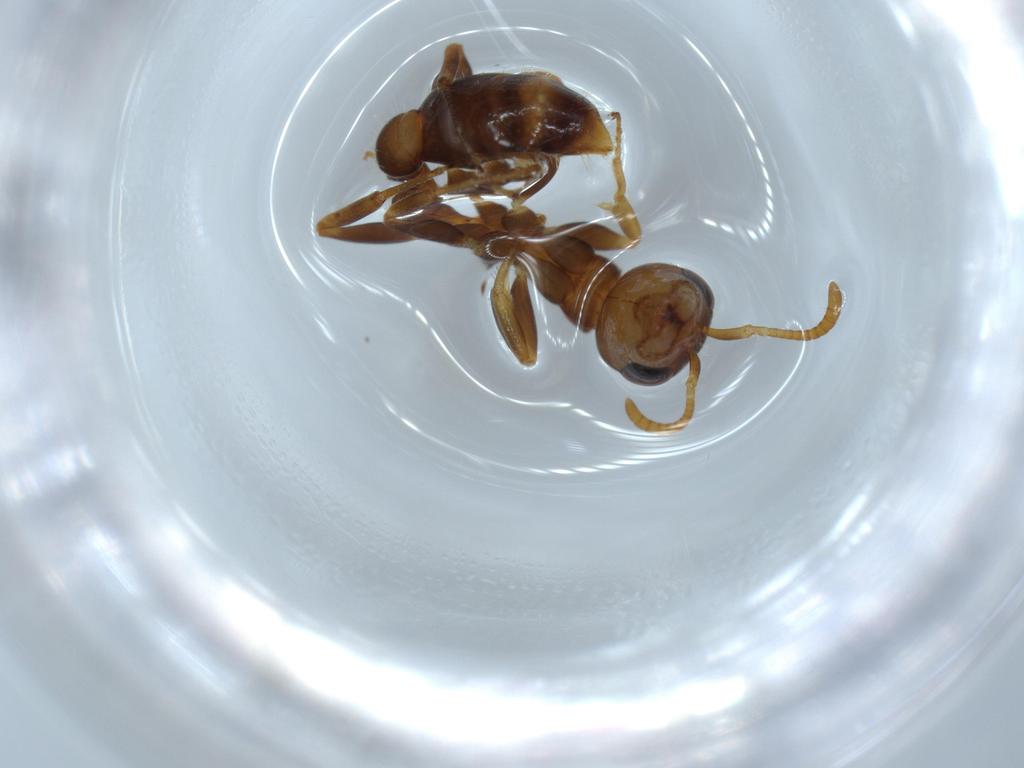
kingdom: Animalia
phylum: Arthropoda
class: Insecta
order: Hymenoptera
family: Formicidae
